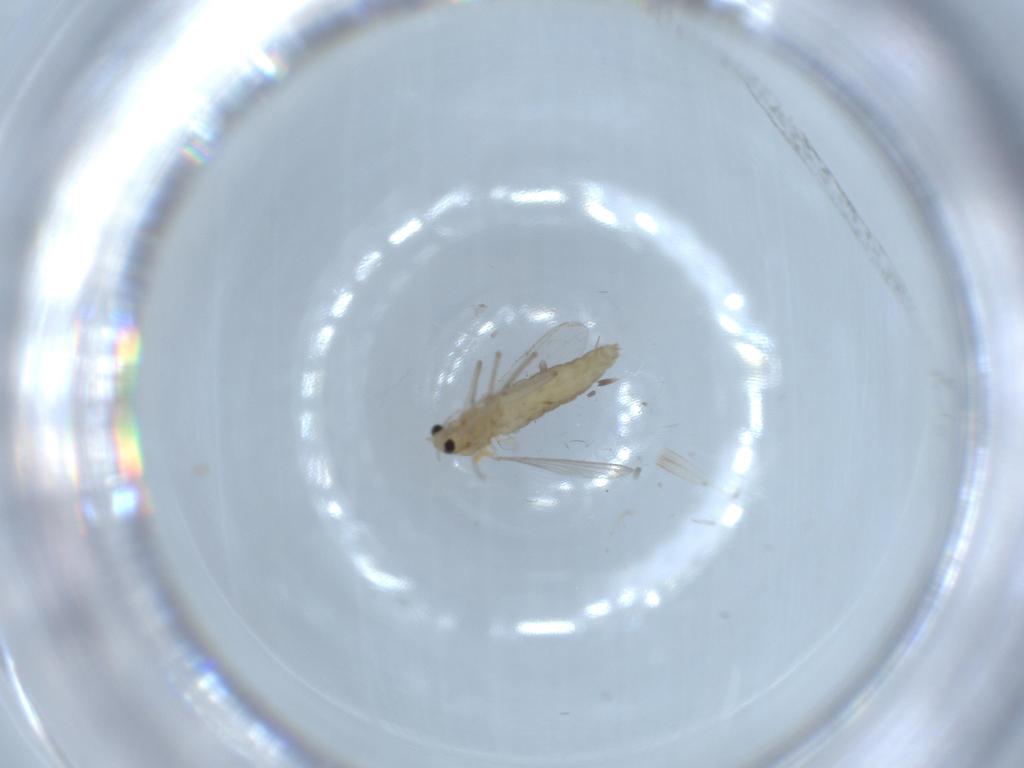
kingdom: Animalia
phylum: Arthropoda
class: Insecta
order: Diptera
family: Chironomidae
